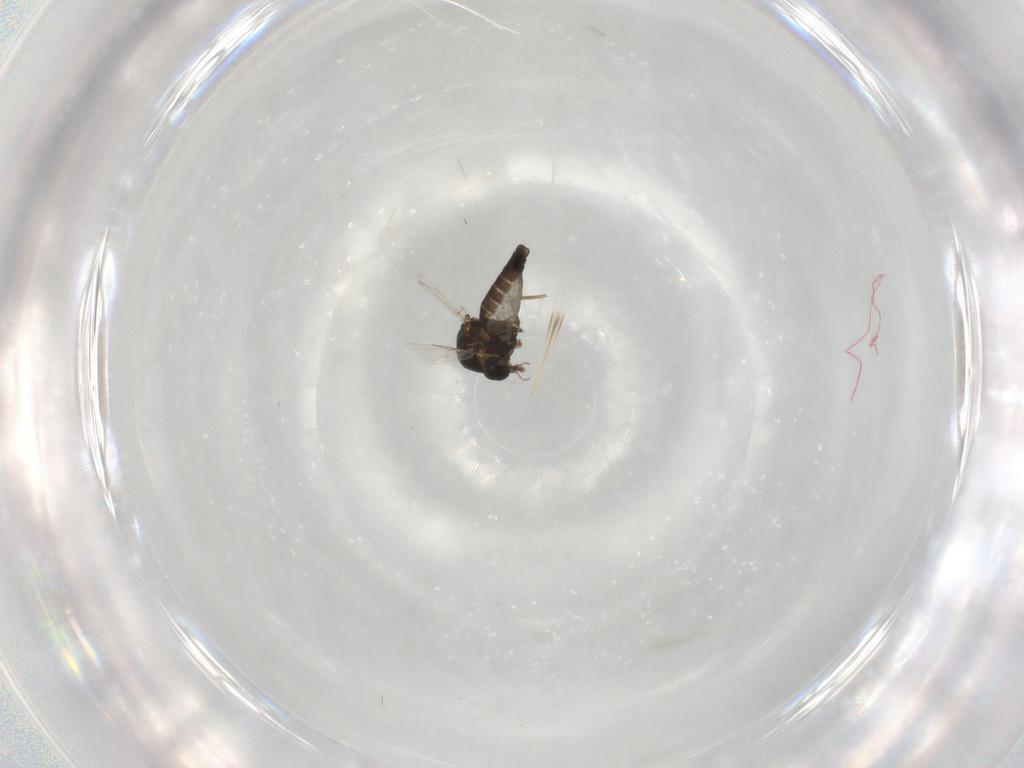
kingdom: Animalia
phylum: Arthropoda
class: Insecta
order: Diptera
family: Ceratopogonidae
